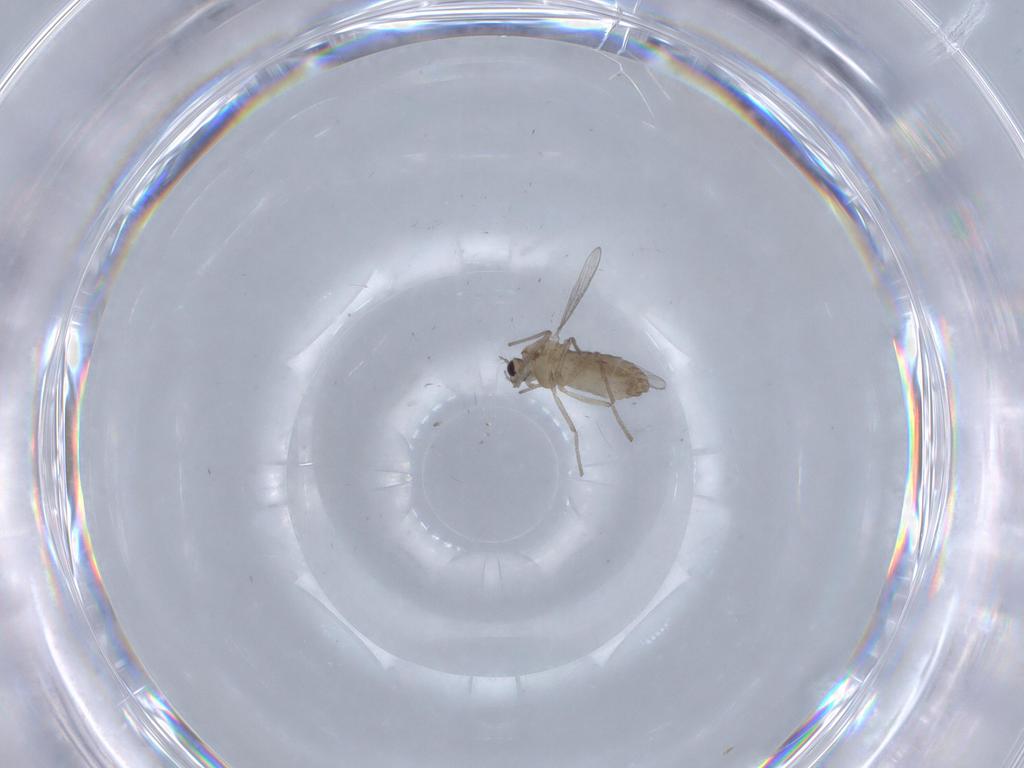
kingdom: Animalia
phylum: Arthropoda
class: Insecta
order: Diptera
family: Chironomidae
